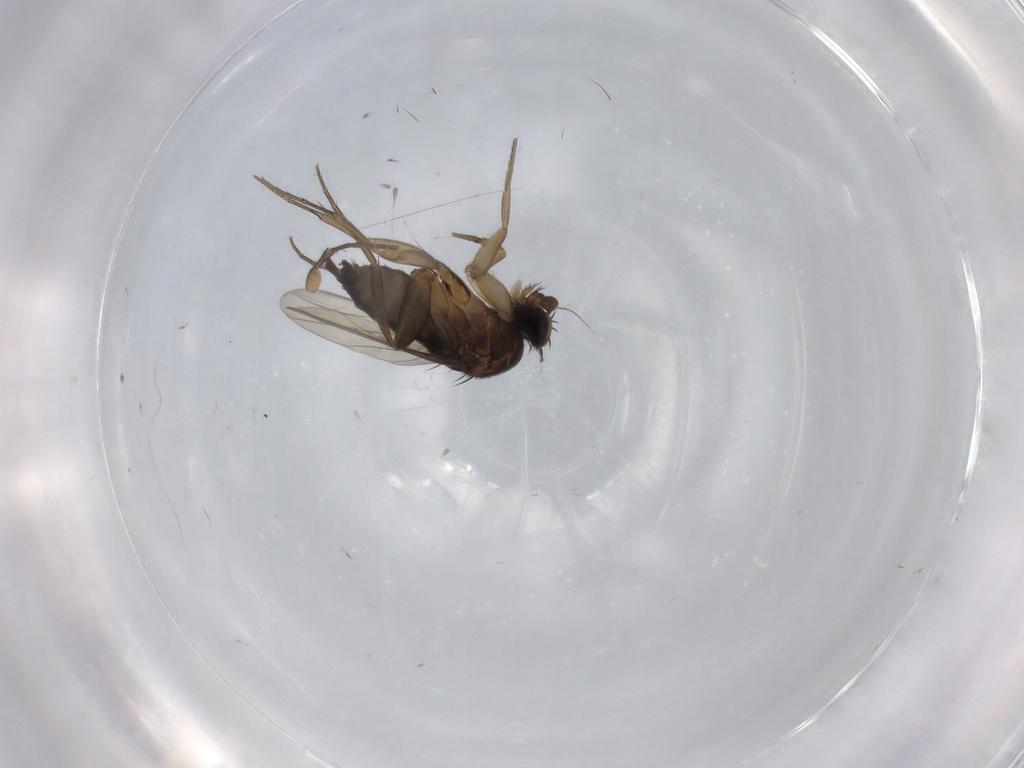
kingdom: Animalia
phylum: Arthropoda
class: Insecta
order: Diptera
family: Phoridae
